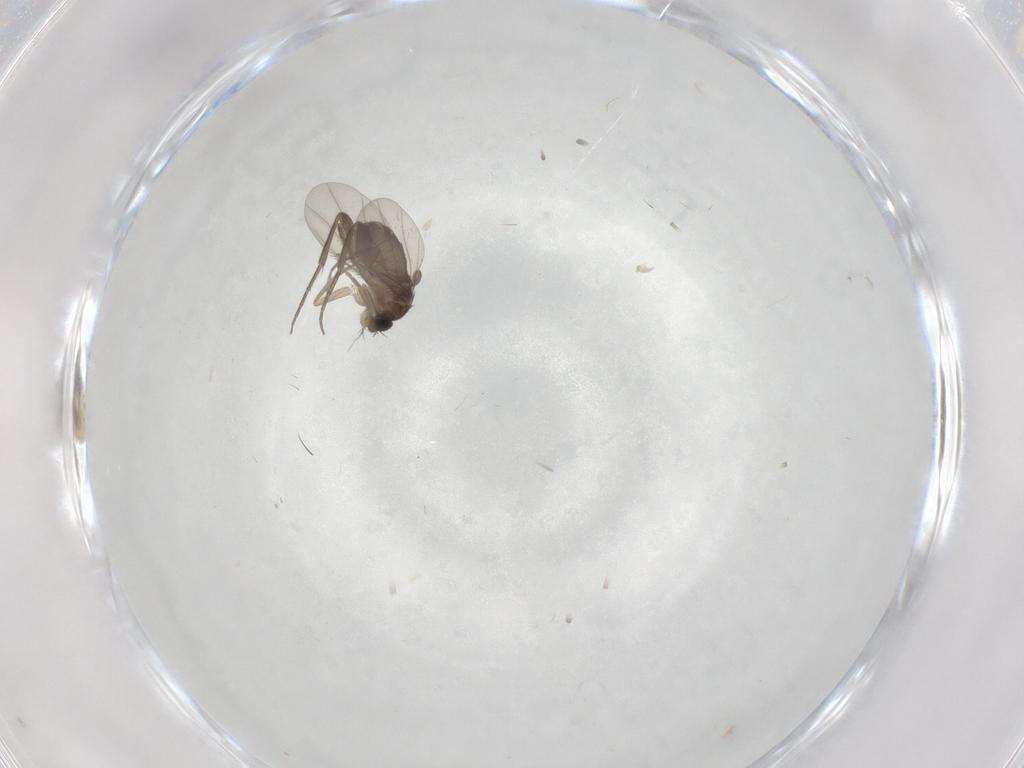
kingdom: Animalia
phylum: Arthropoda
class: Insecta
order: Diptera
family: Phoridae
